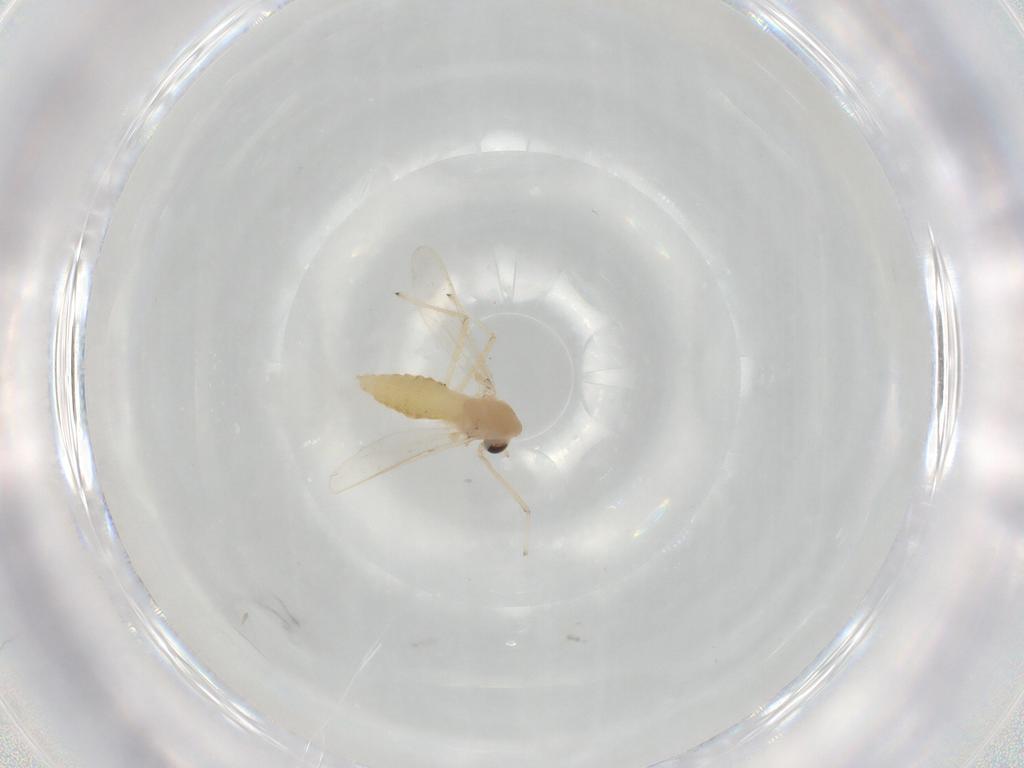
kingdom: Animalia
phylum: Arthropoda
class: Insecta
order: Diptera
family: Chironomidae
